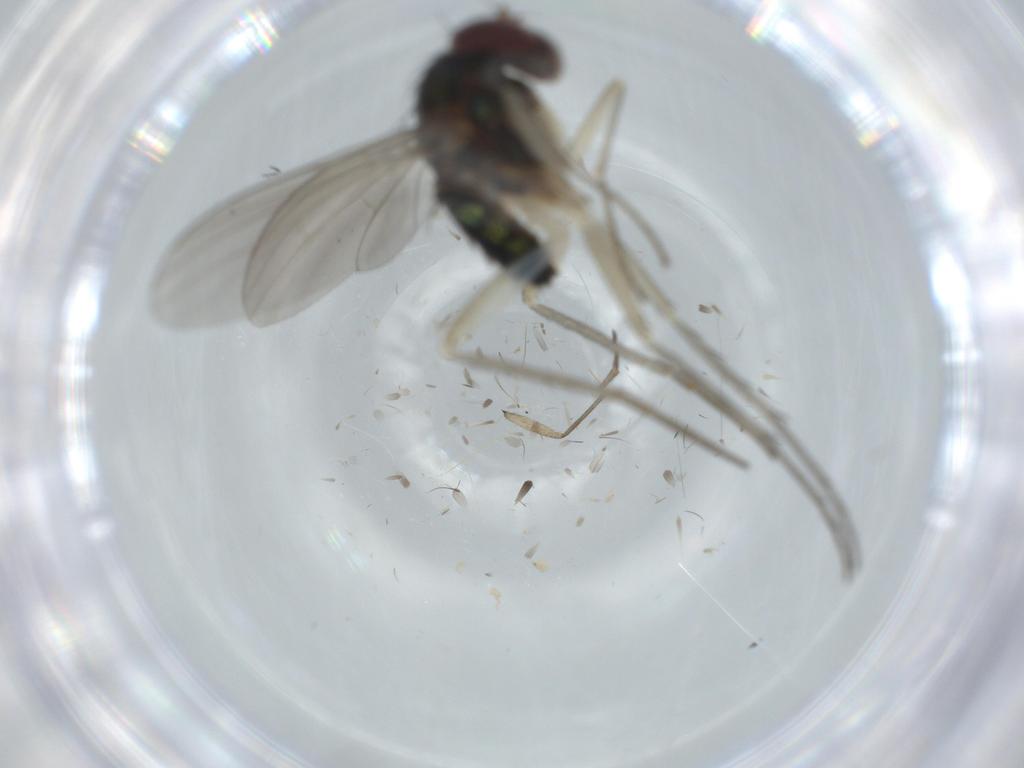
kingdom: Animalia
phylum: Arthropoda
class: Insecta
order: Diptera
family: Dolichopodidae
